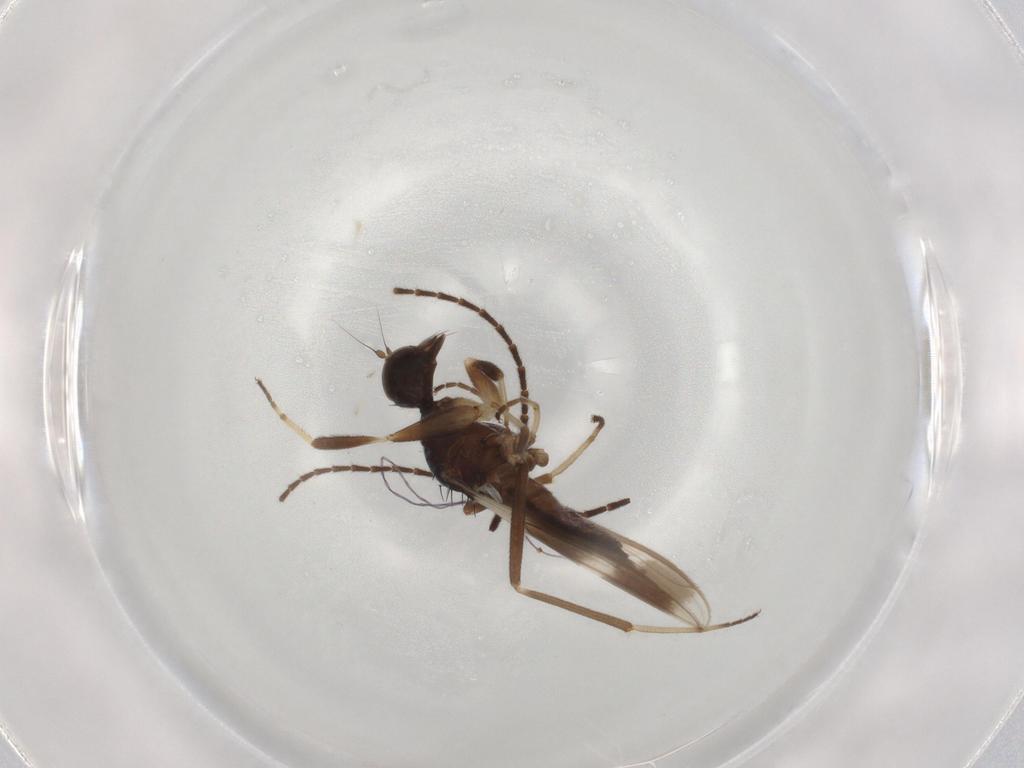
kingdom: Animalia
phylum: Arthropoda
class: Insecta
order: Diptera
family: Hybotidae
